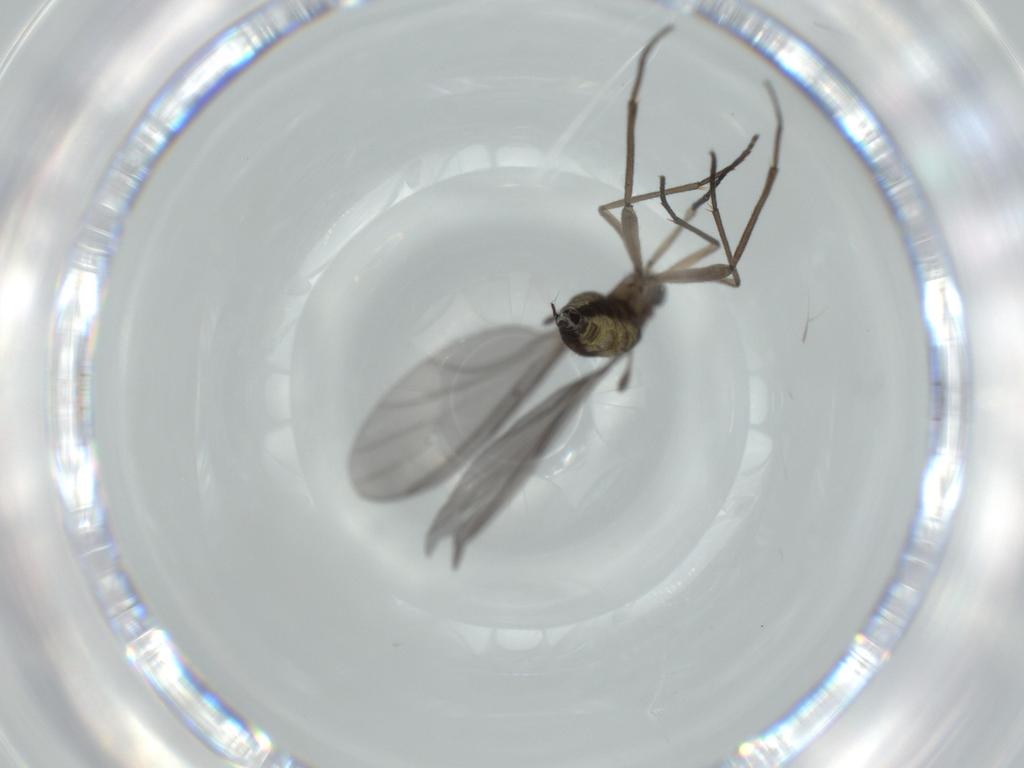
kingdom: Animalia
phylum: Arthropoda
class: Insecta
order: Diptera
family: Sciaridae
